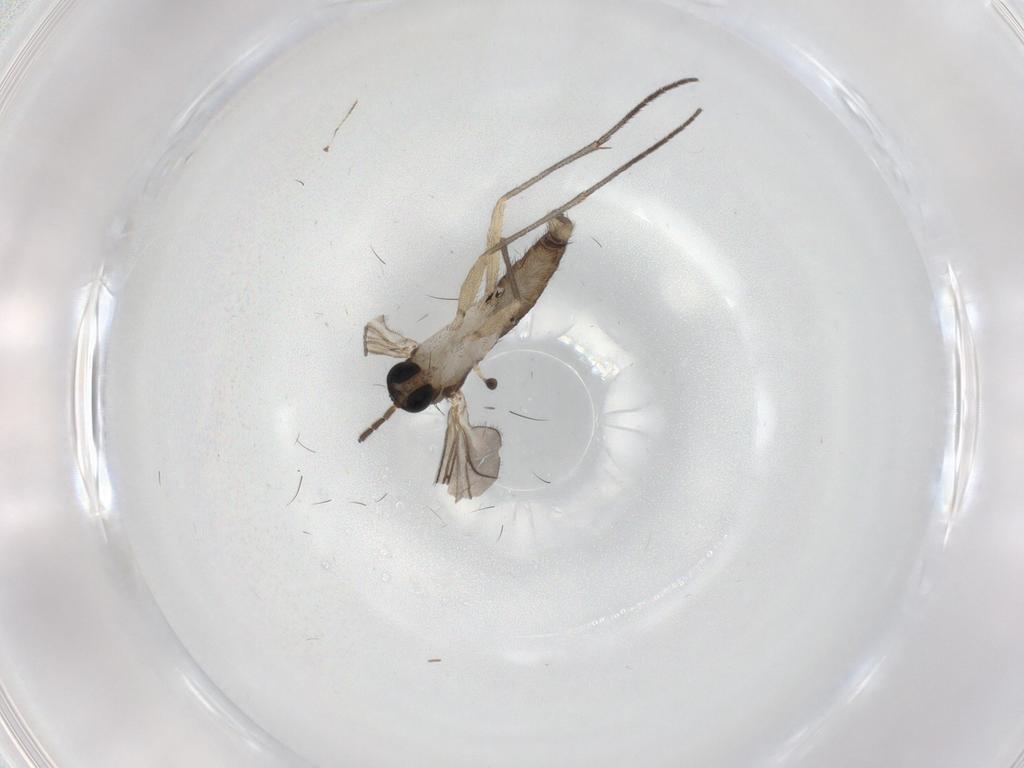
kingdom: Animalia
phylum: Arthropoda
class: Insecta
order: Diptera
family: Sciaridae
